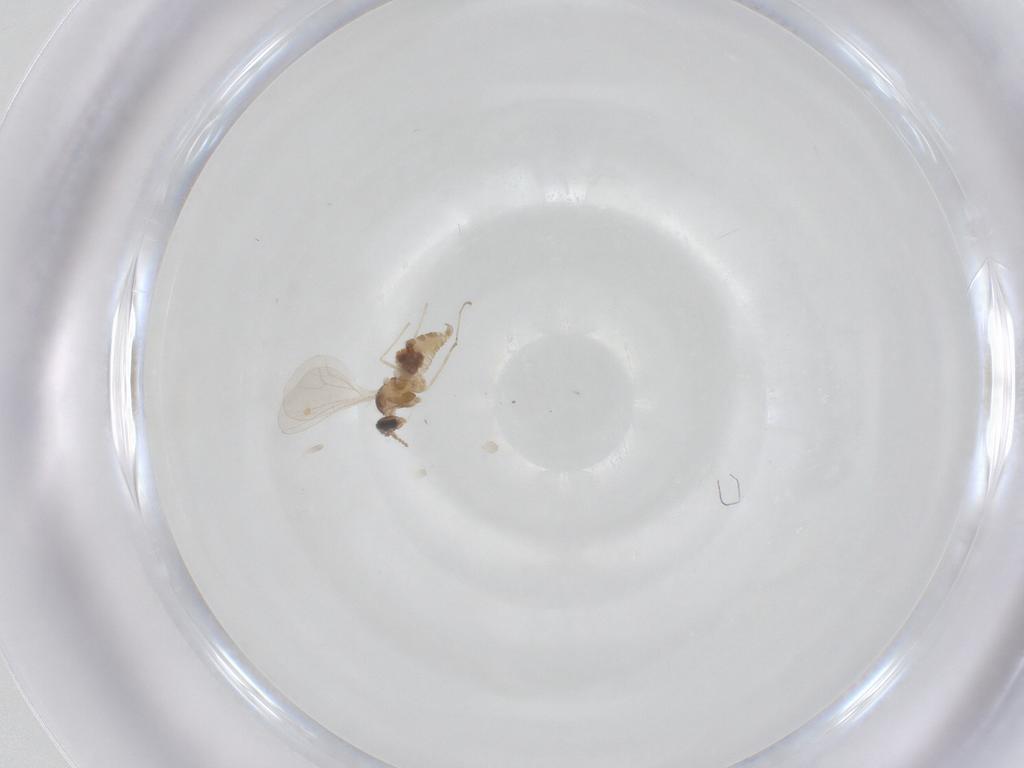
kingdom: Animalia
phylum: Arthropoda
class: Insecta
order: Diptera
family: Cecidomyiidae
